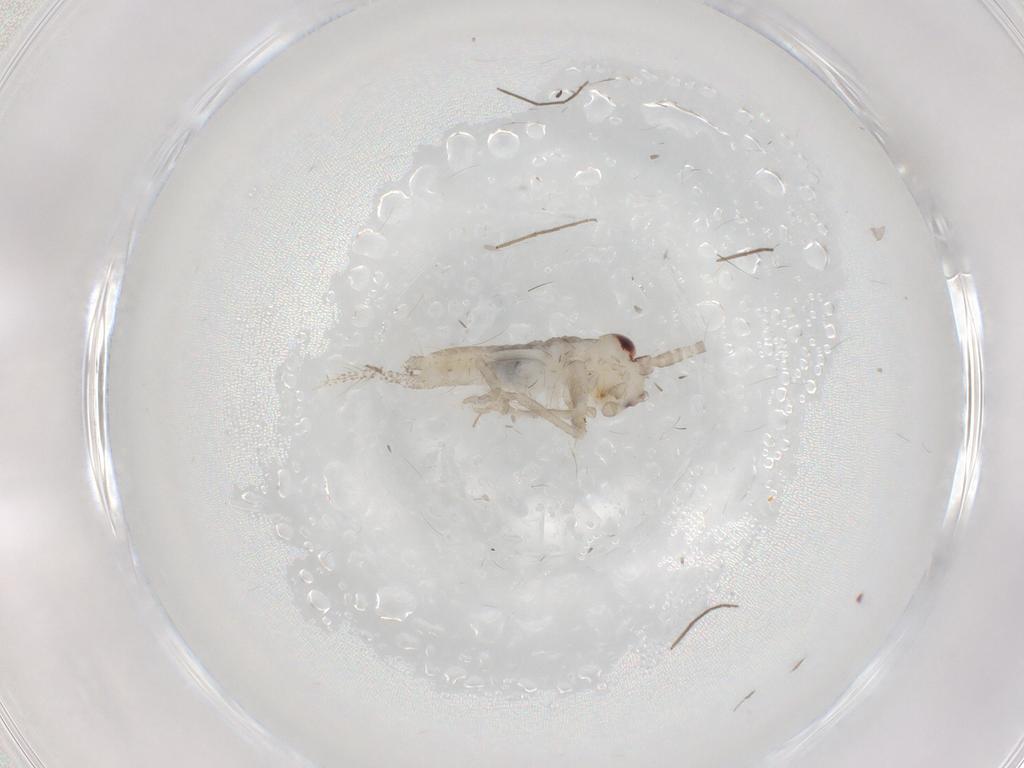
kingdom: Animalia
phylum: Arthropoda
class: Insecta
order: Orthoptera
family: Gryllidae
